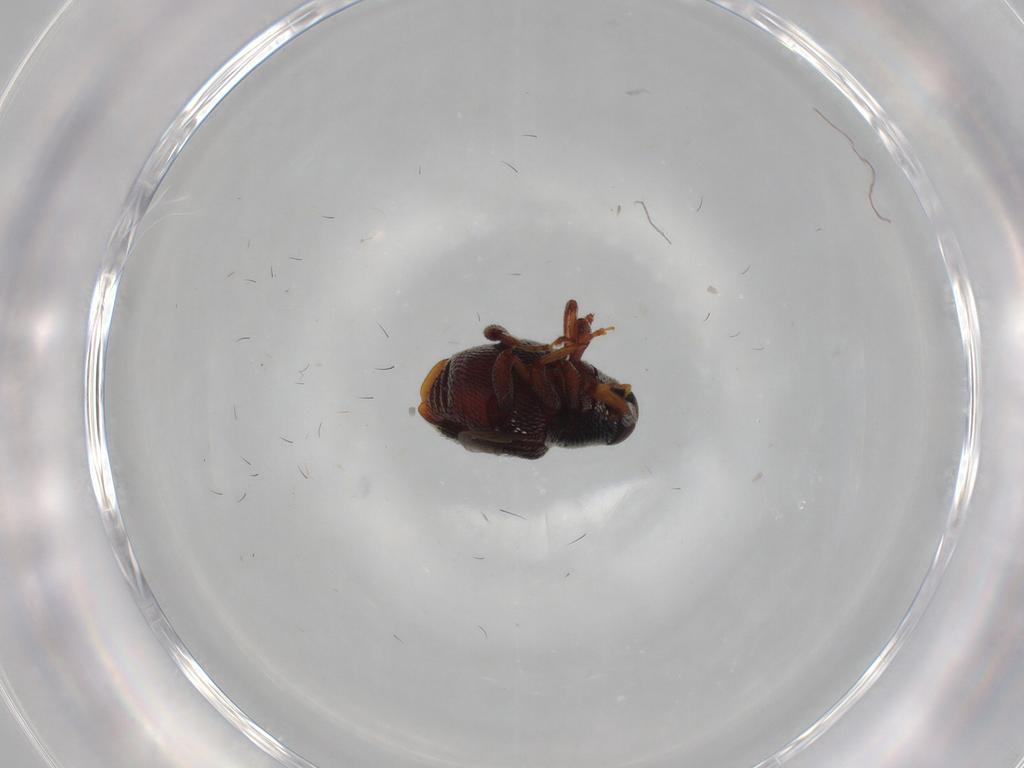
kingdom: Animalia
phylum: Arthropoda
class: Insecta
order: Coleoptera
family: Curculionidae
